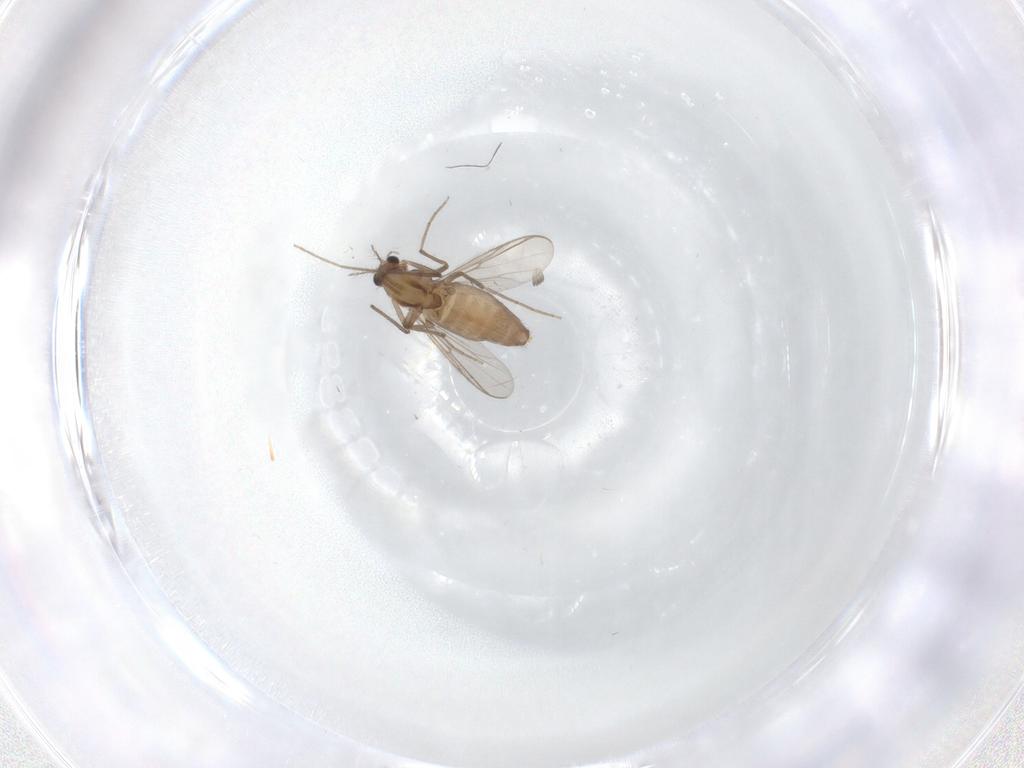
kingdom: Animalia
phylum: Arthropoda
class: Insecta
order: Diptera
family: Chironomidae
